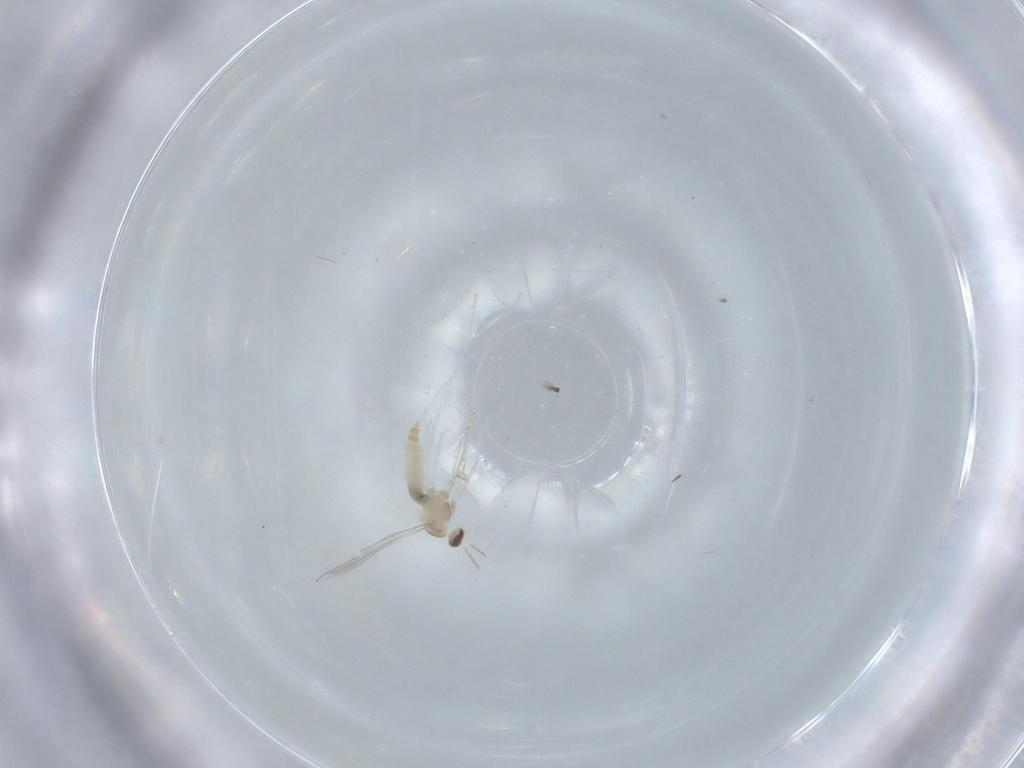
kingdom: Animalia
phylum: Arthropoda
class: Insecta
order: Diptera
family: Cecidomyiidae
